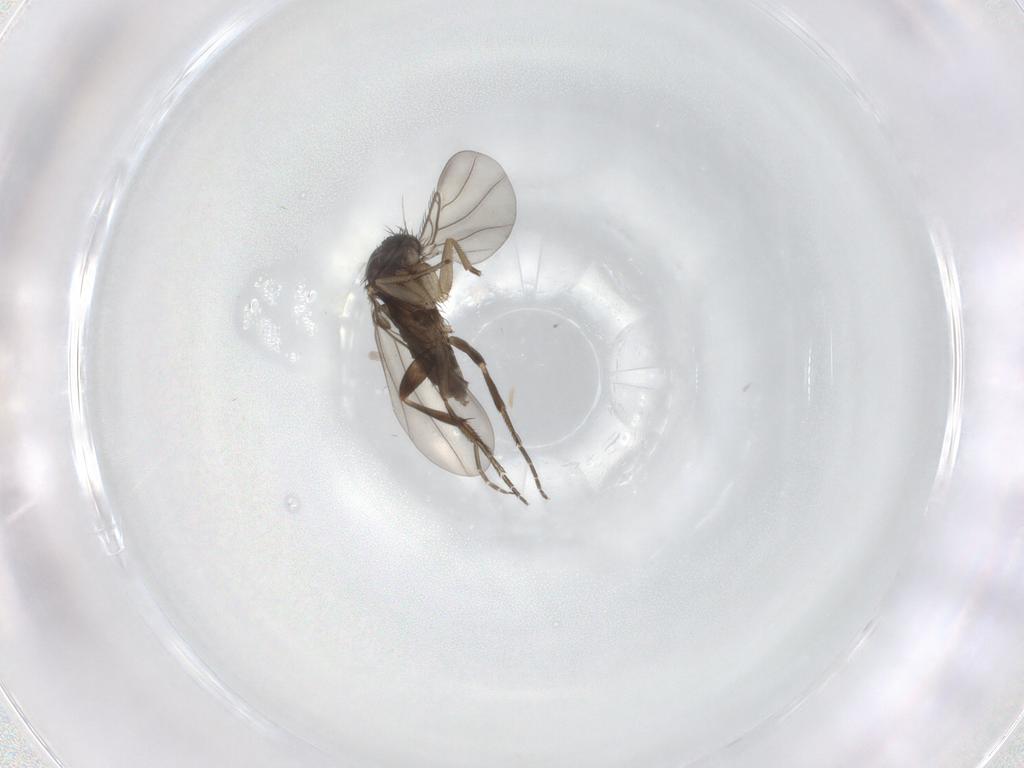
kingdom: Animalia
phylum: Arthropoda
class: Insecta
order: Diptera
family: Phoridae
